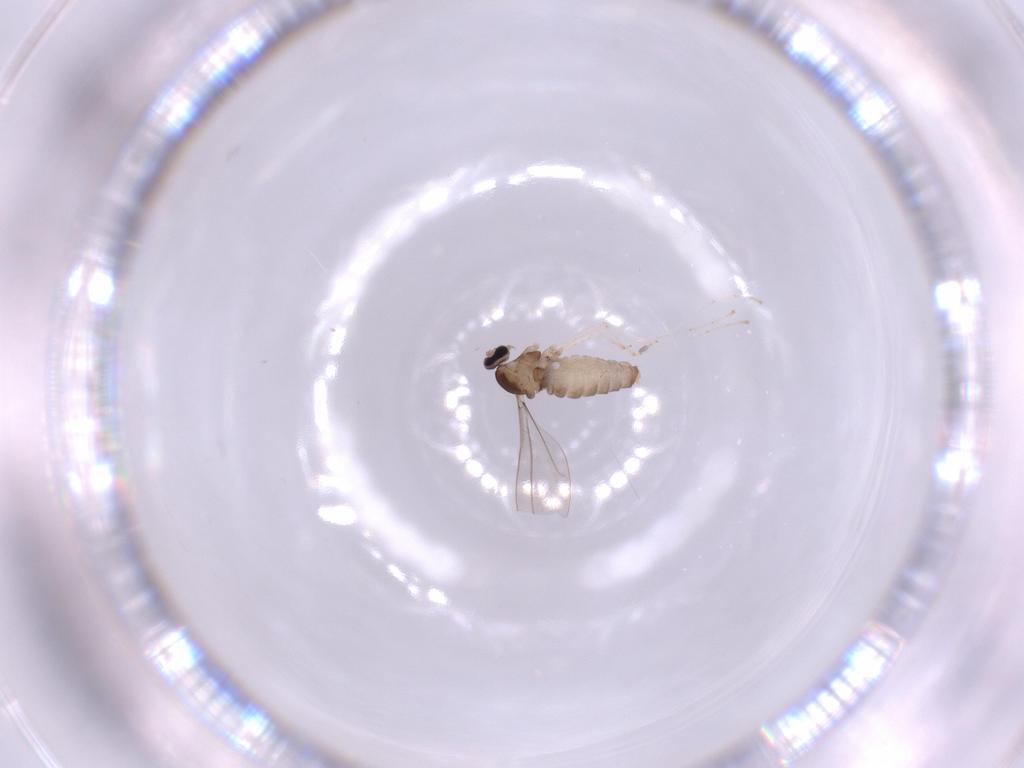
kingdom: Animalia
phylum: Arthropoda
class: Insecta
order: Diptera
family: Cecidomyiidae
